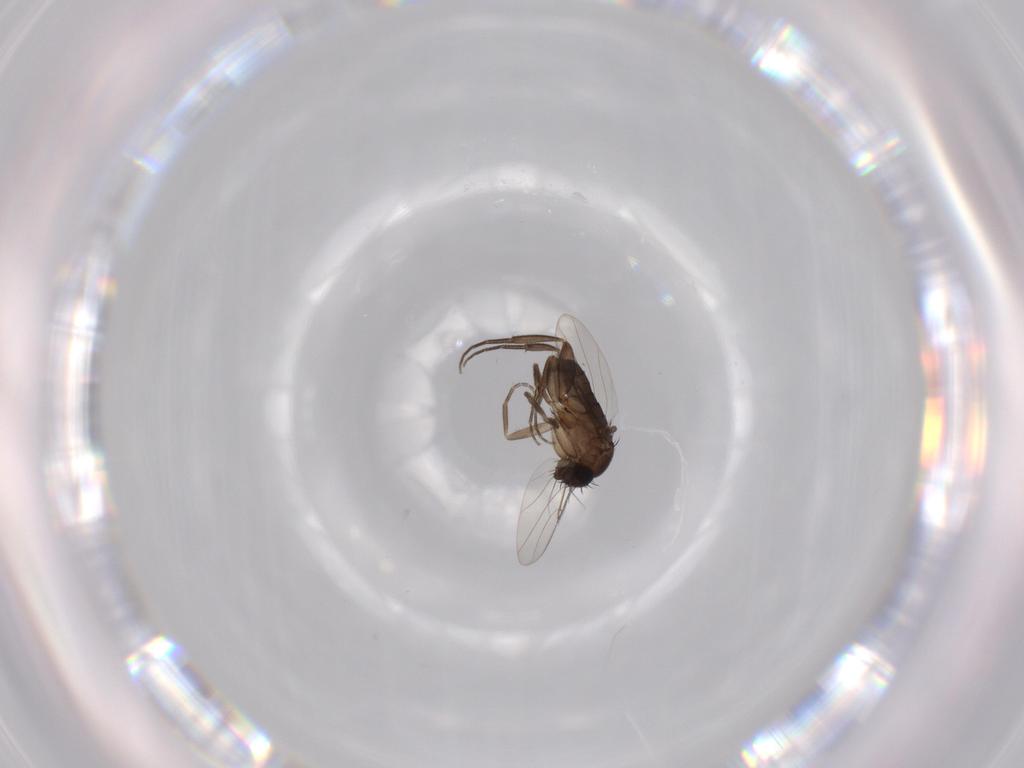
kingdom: Animalia
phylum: Arthropoda
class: Insecta
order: Diptera
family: Phoridae
